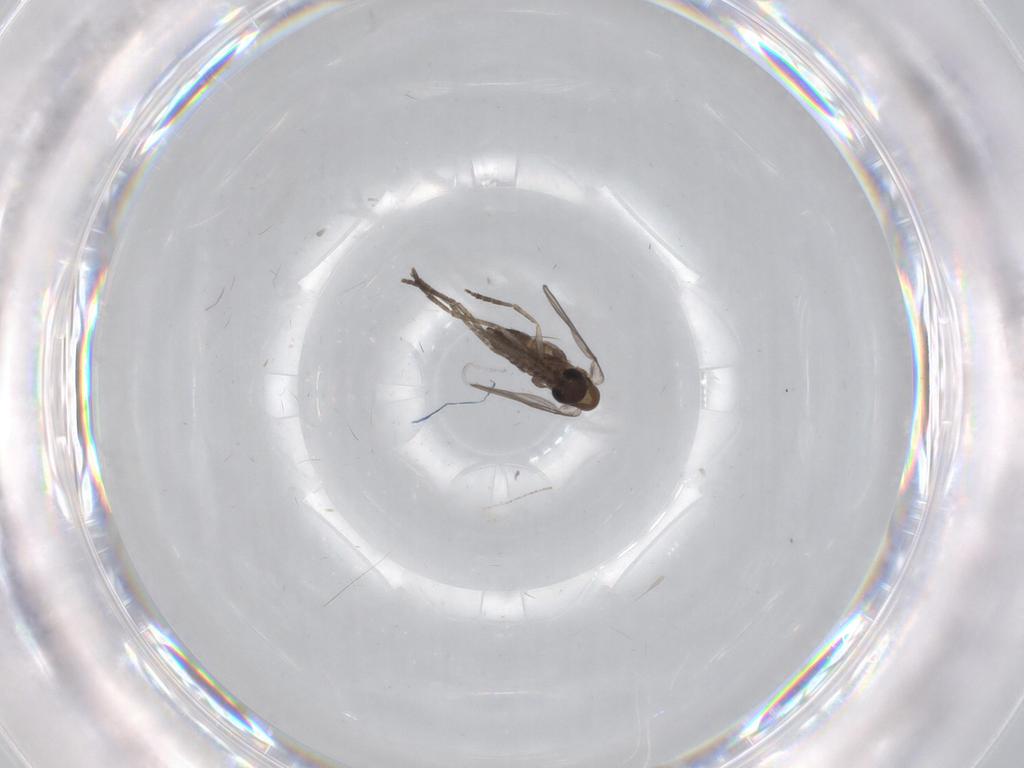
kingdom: Animalia
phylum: Arthropoda
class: Insecta
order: Diptera
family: Cecidomyiidae
